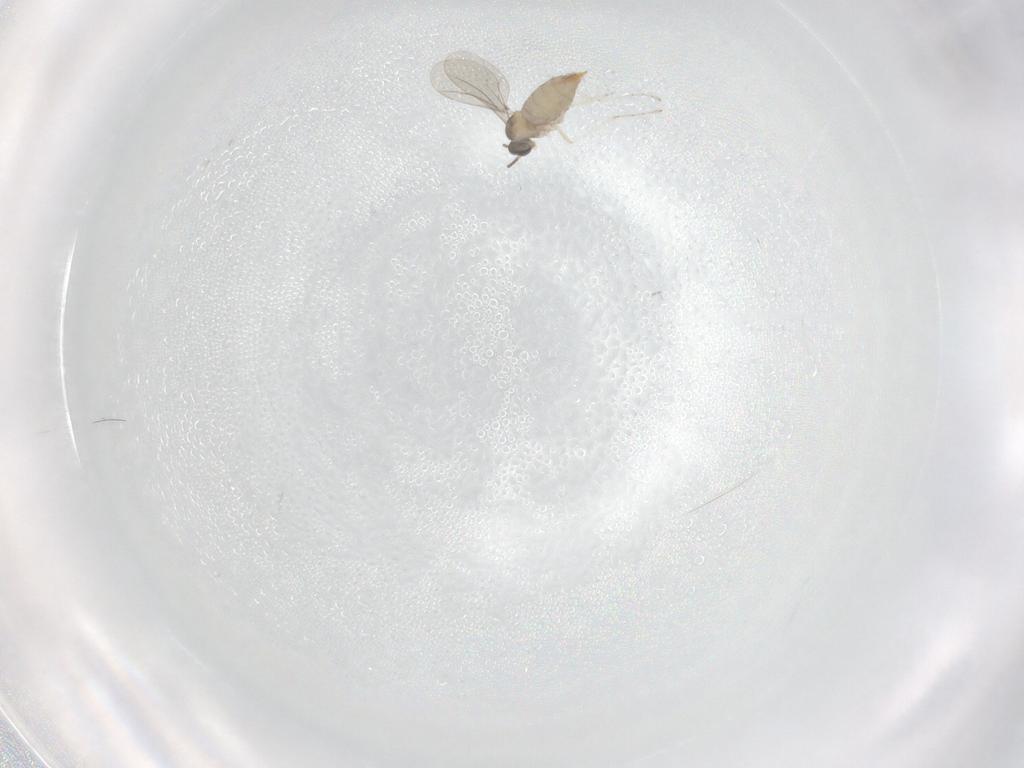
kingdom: Animalia
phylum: Arthropoda
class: Insecta
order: Diptera
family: Cecidomyiidae
